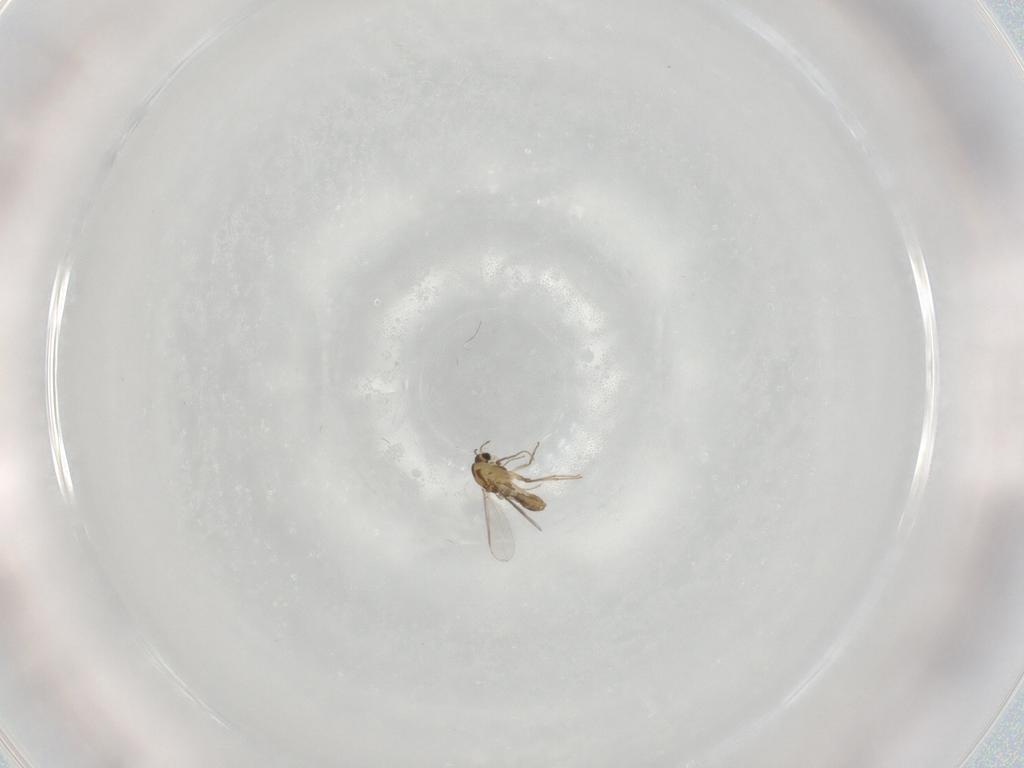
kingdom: Animalia
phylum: Arthropoda
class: Insecta
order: Diptera
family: Chironomidae
